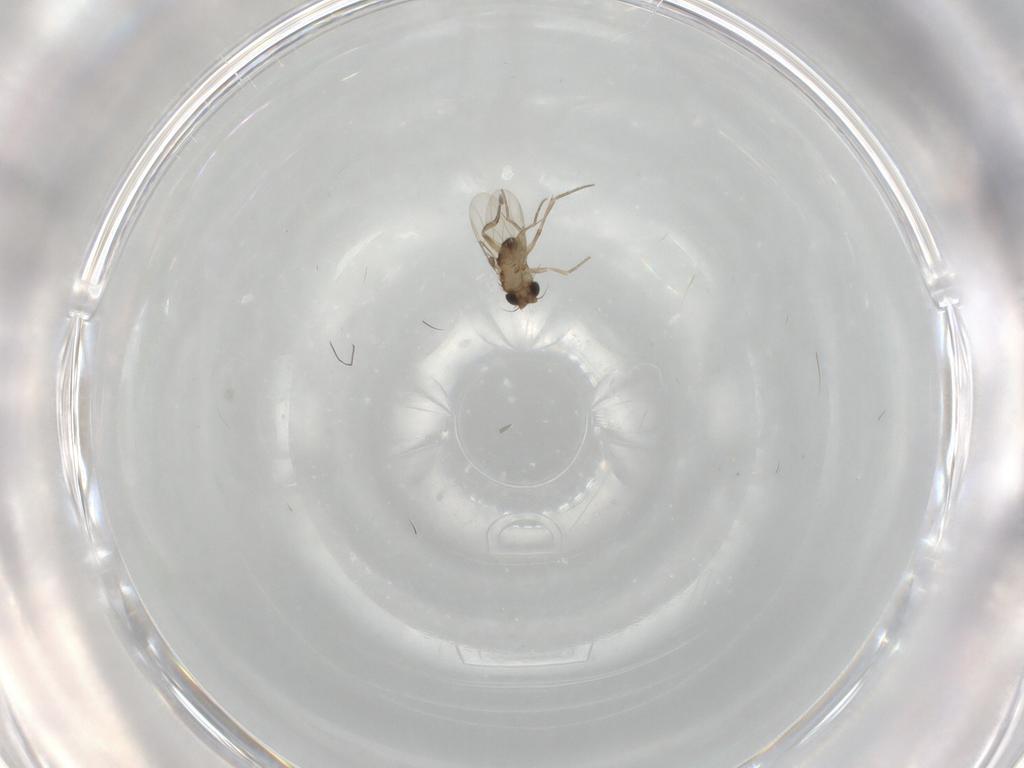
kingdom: Animalia
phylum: Arthropoda
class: Insecta
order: Diptera
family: Phoridae
